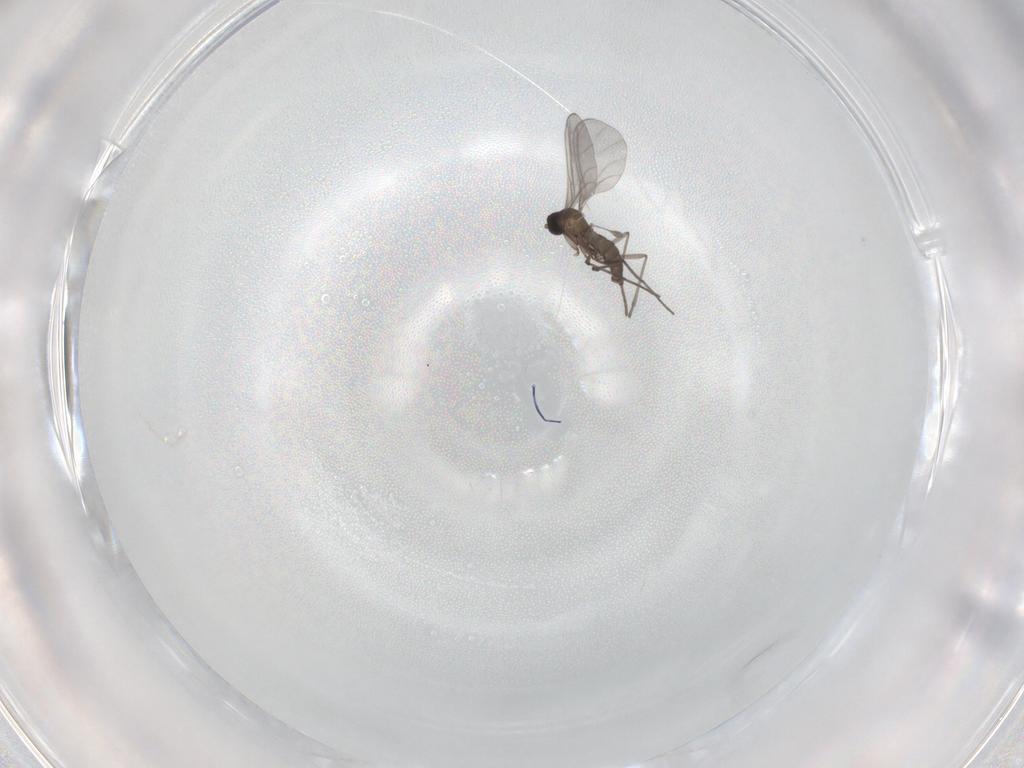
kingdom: Animalia
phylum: Arthropoda
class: Insecta
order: Diptera
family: Sciaridae
